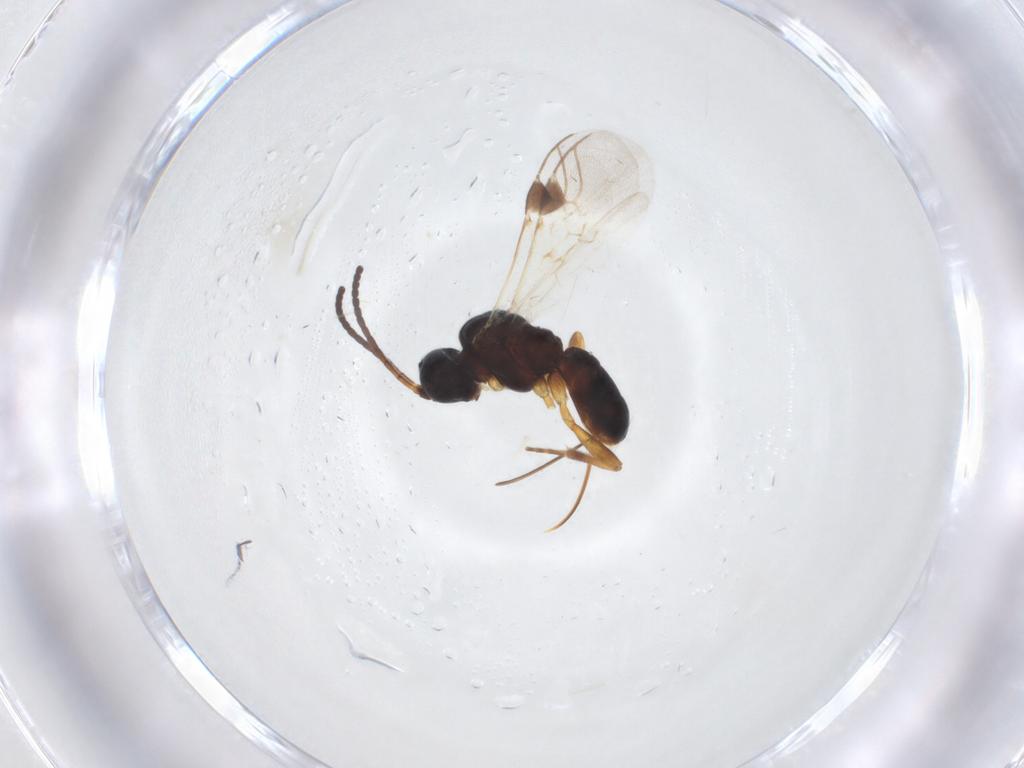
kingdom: Animalia
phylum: Arthropoda
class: Insecta
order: Hymenoptera
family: Braconidae
